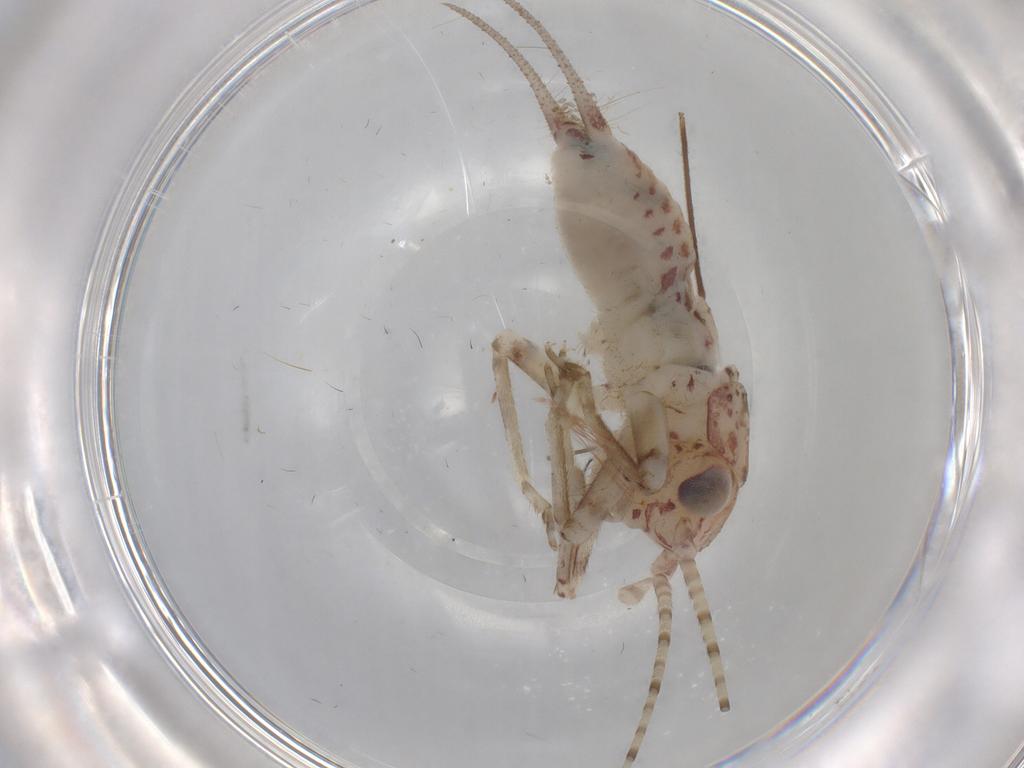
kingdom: Animalia
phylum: Arthropoda
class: Insecta
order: Orthoptera
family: Trigonidiidae
